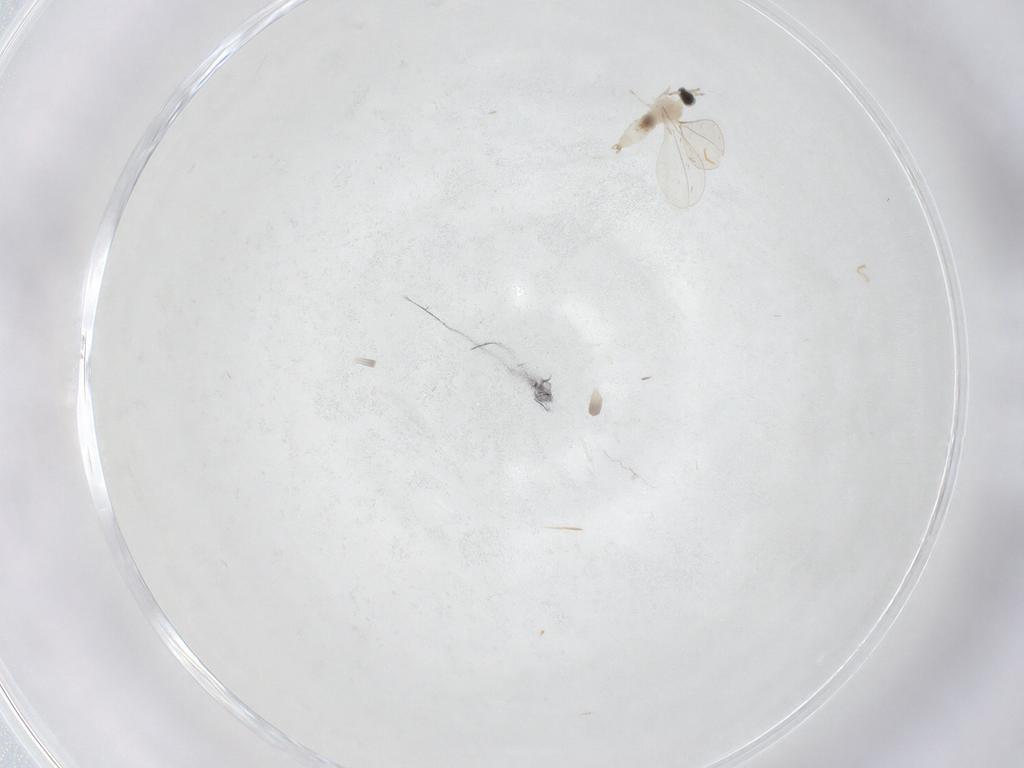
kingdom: Animalia
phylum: Arthropoda
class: Insecta
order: Diptera
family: Cecidomyiidae
